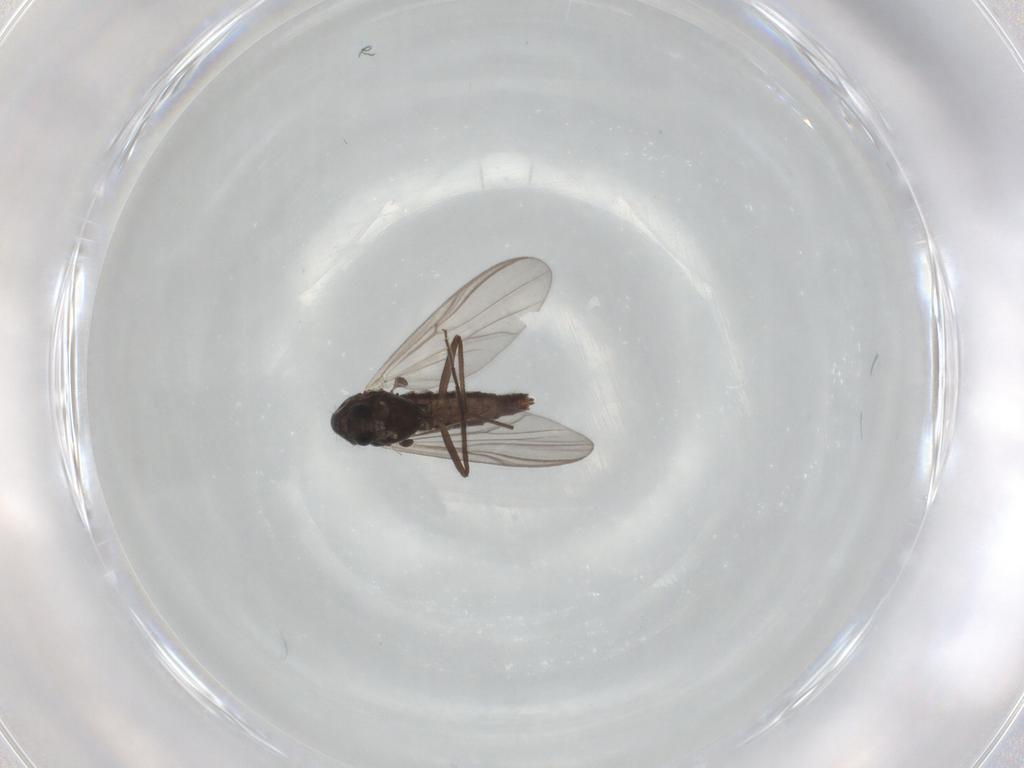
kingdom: Animalia
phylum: Arthropoda
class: Insecta
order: Diptera
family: Chironomidae
